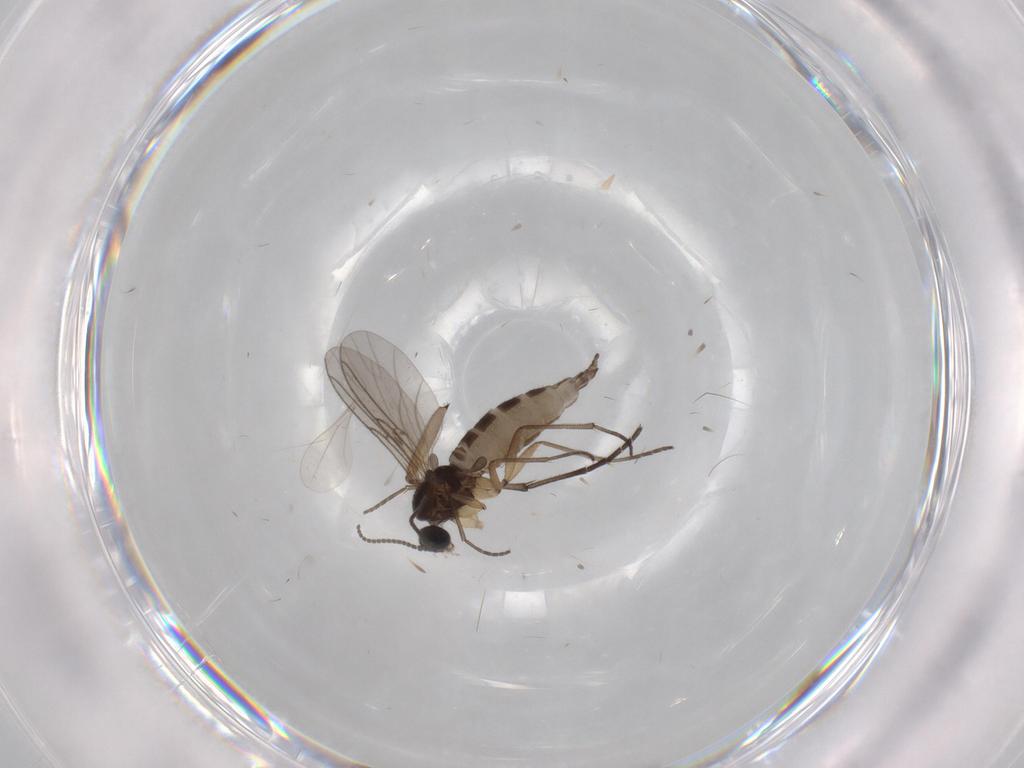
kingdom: Animalia
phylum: Arthropoda
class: Insecta
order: Diptera
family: Sciaridae
